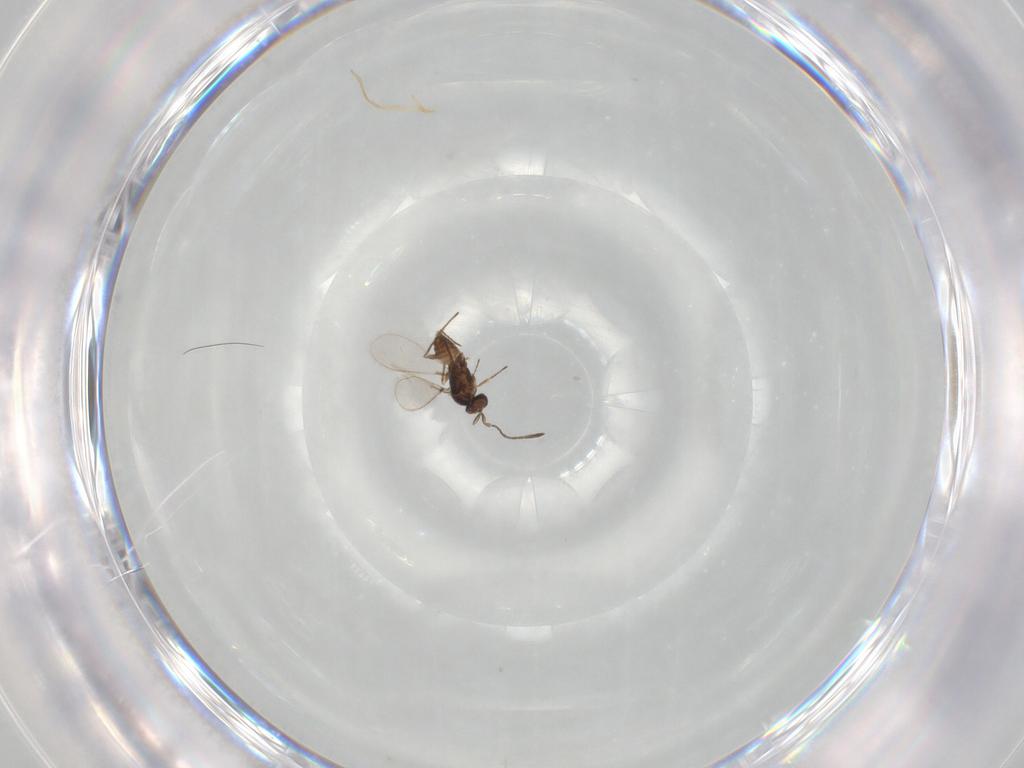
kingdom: Animalia
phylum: Arthropoda
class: Insecta
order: Hymenoptera
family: Mymaridae
